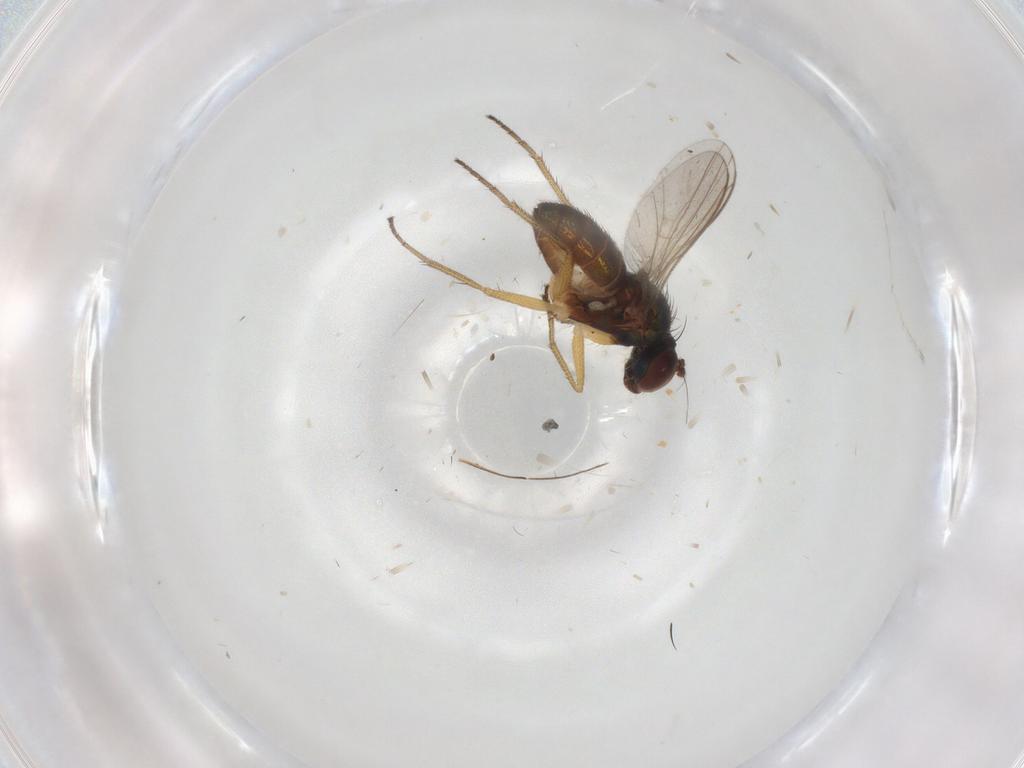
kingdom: Animalia
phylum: Arthropoda
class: Insecta
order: Diptera
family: Dolichopodidae
